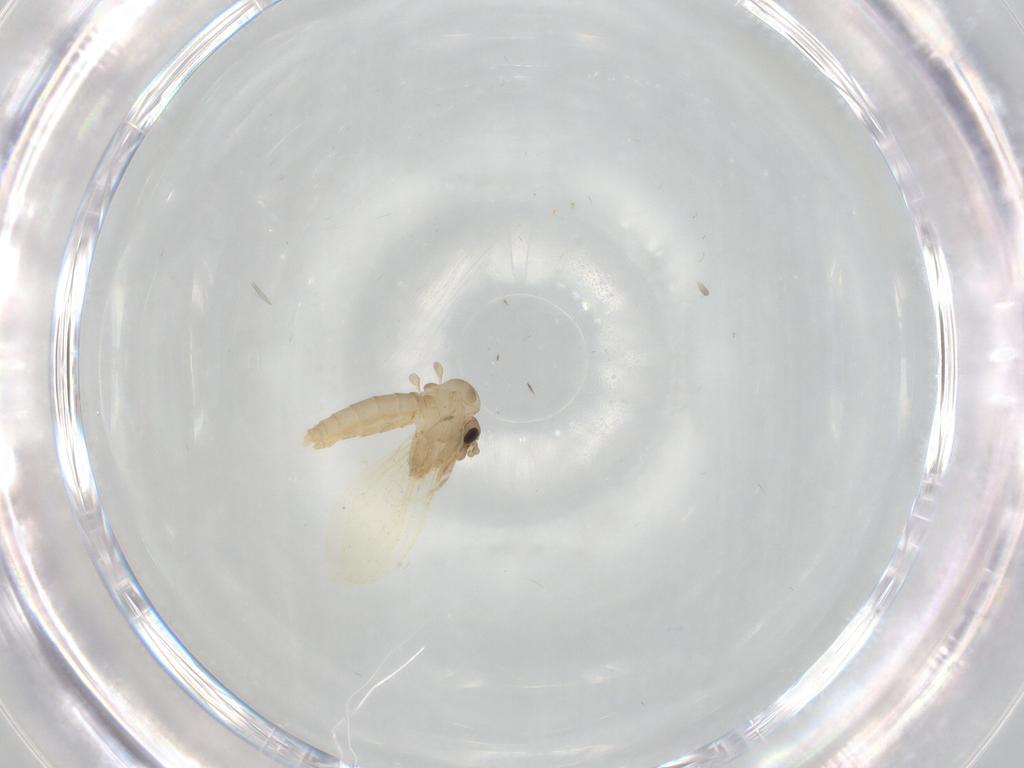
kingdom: Animalia
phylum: Arthropoda
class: Insecta
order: Diptera
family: Psychodidae
